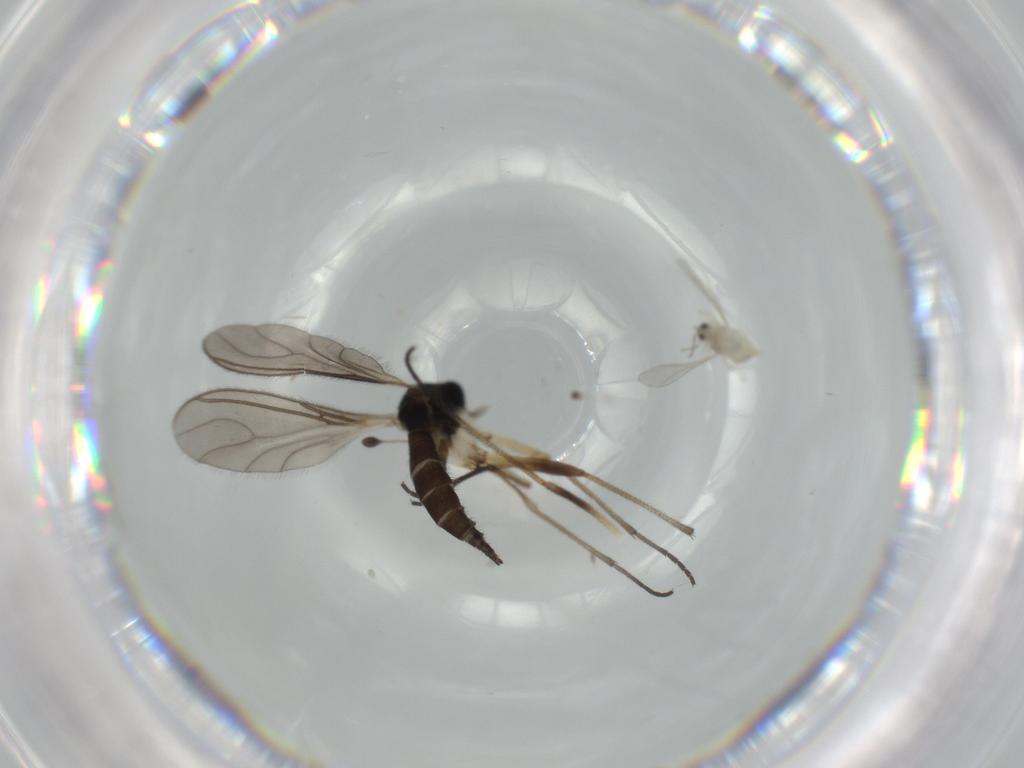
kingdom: Animalia
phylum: Arthropoda
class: Insecta
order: Diptera
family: Sciaridae
